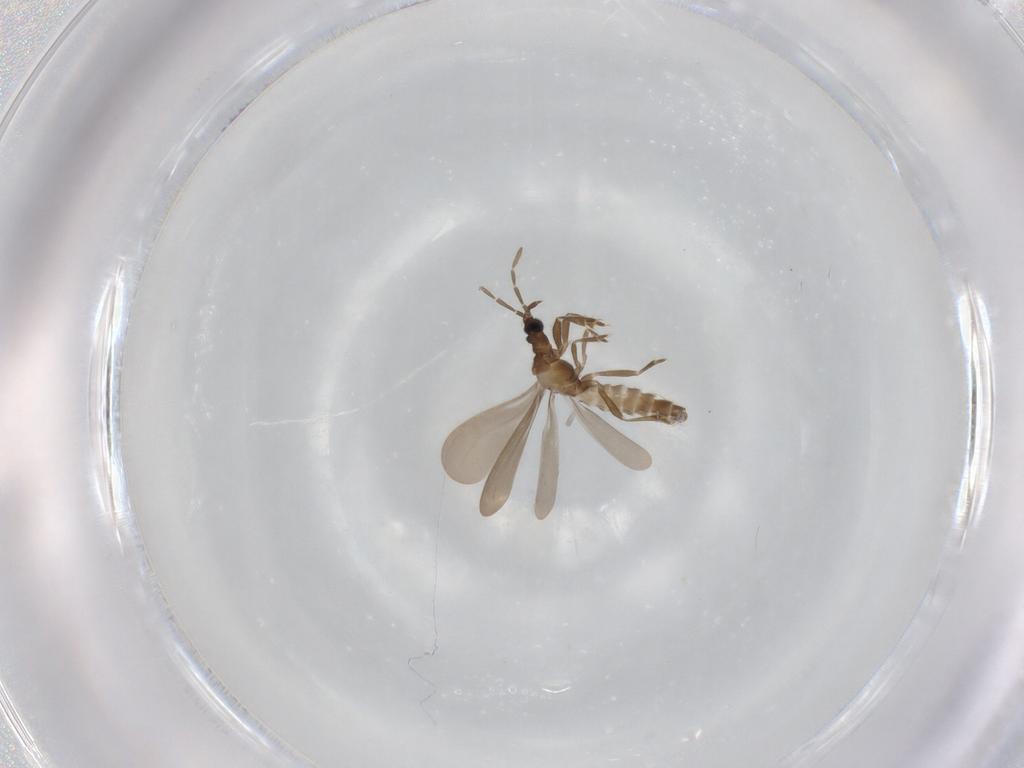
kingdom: Animalia
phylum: Arthropoda
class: Insecta
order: Hemiptera
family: Enicocephalidae
